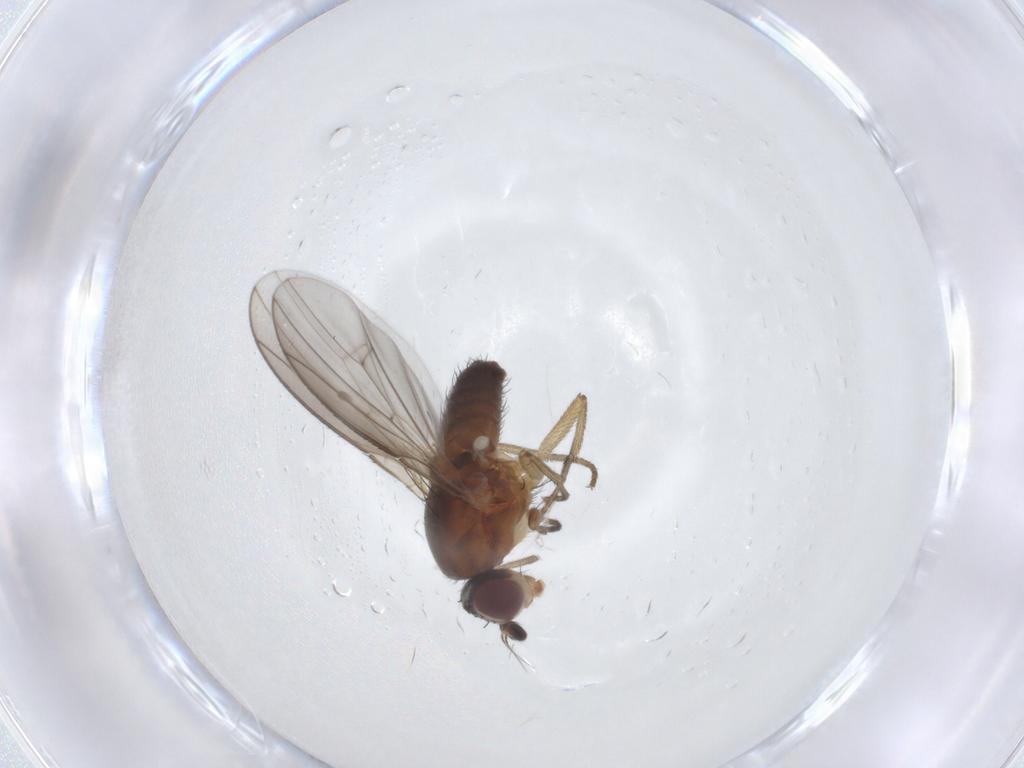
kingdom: Animalia
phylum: Arthropoda
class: Insecta
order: Diptera
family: Heleomyzidae
